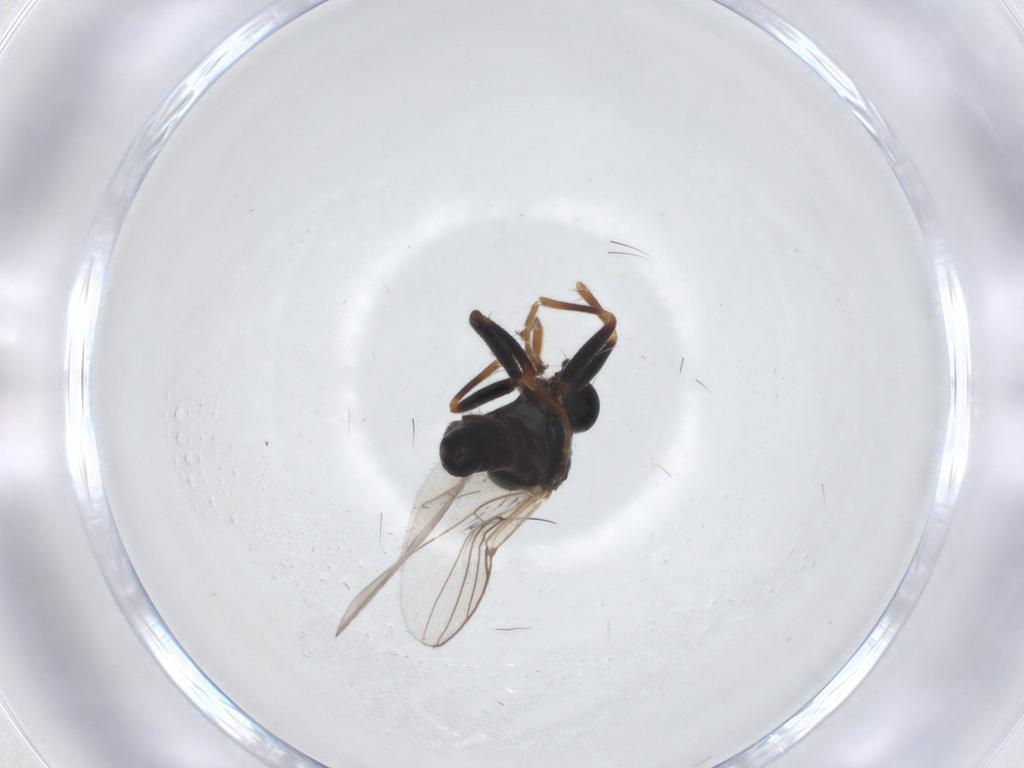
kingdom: Animalia
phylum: Arthropoda
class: Insecta
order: Diptera
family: Hybotidae
